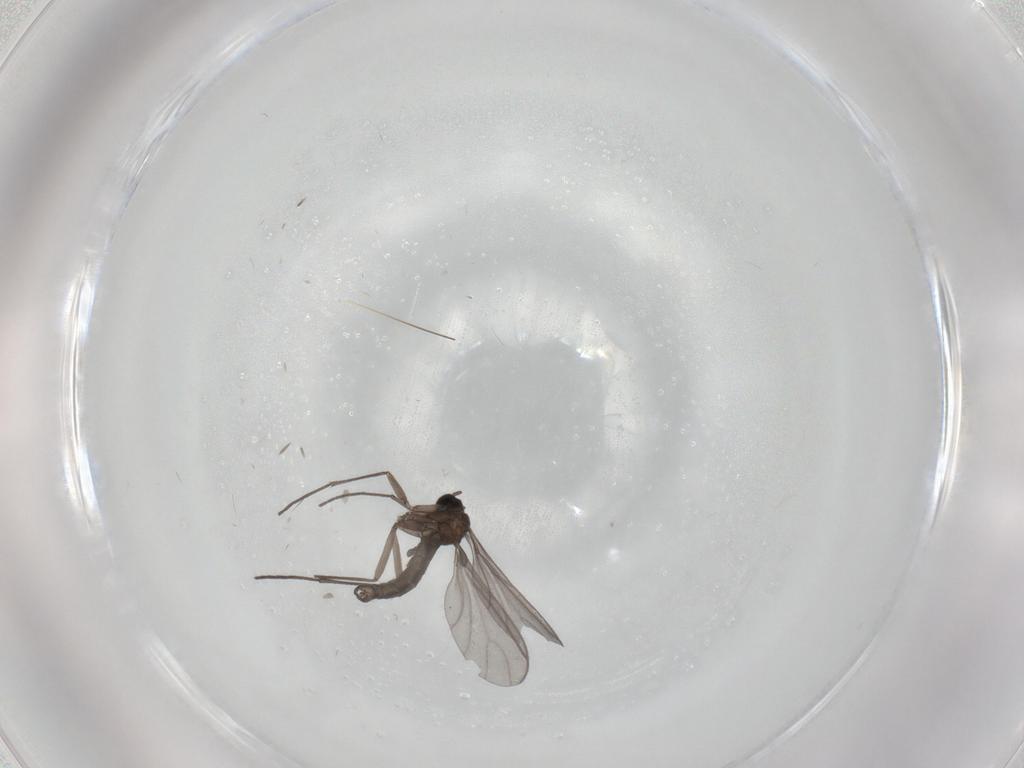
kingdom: Animalia
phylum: Arthropoda
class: Insecta
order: Diptera
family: Sciaridae
